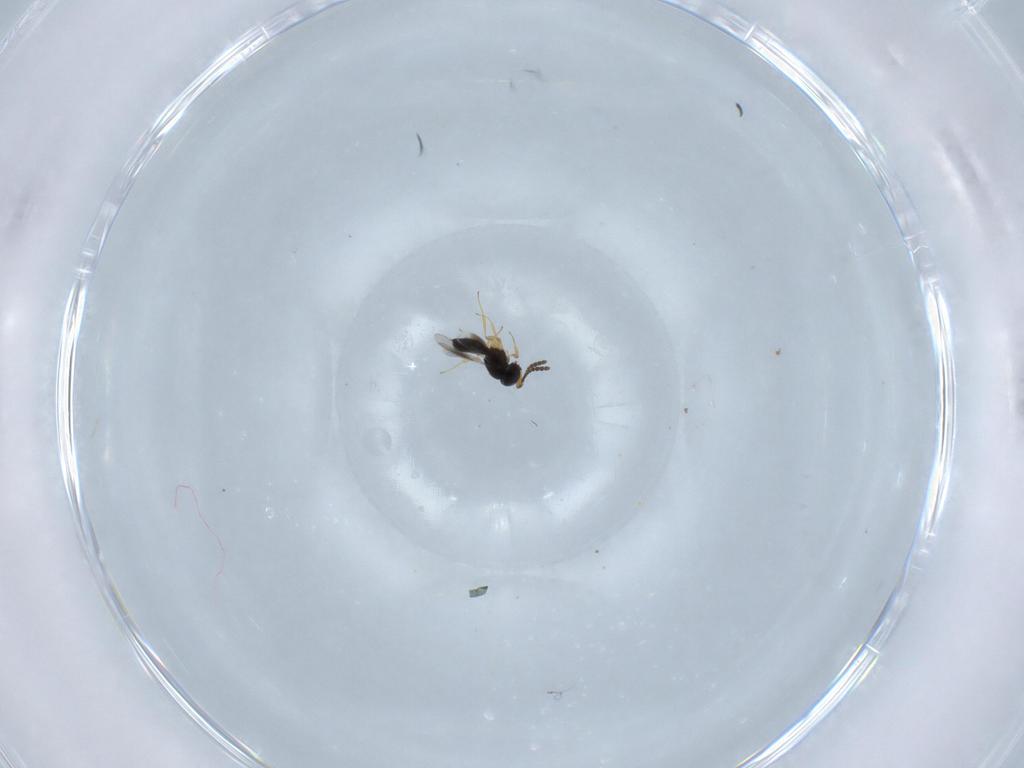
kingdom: Animalia
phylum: Arthropoda
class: Insecta
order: Hymenoptera
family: Scelionidae
